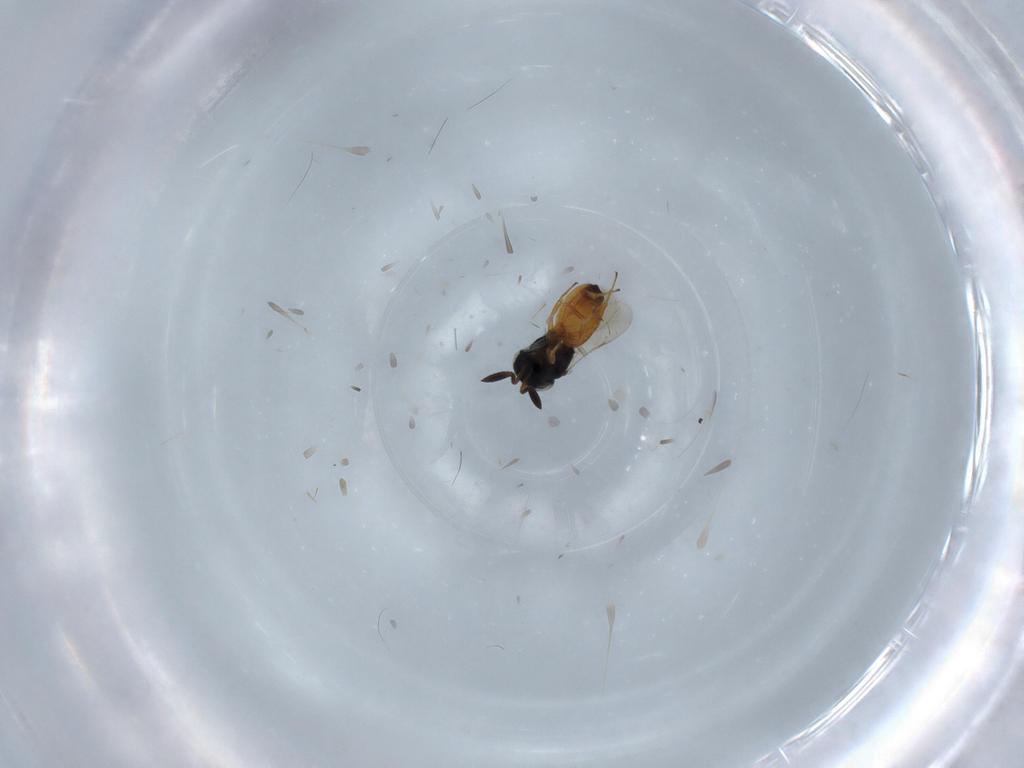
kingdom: Animalia
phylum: Arthropoda
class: Insecta
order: Hymenoptera
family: Scelionidae
